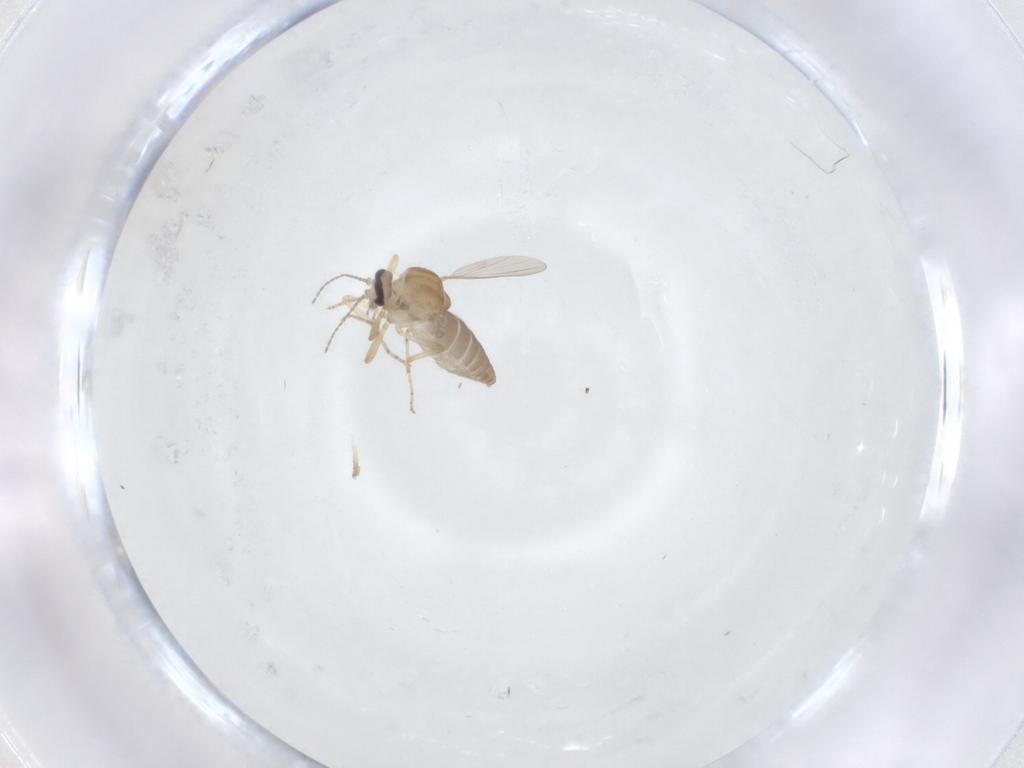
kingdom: Animalia
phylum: Arthropoda
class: Insecta
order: Diptera
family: Ceratopogonidae
